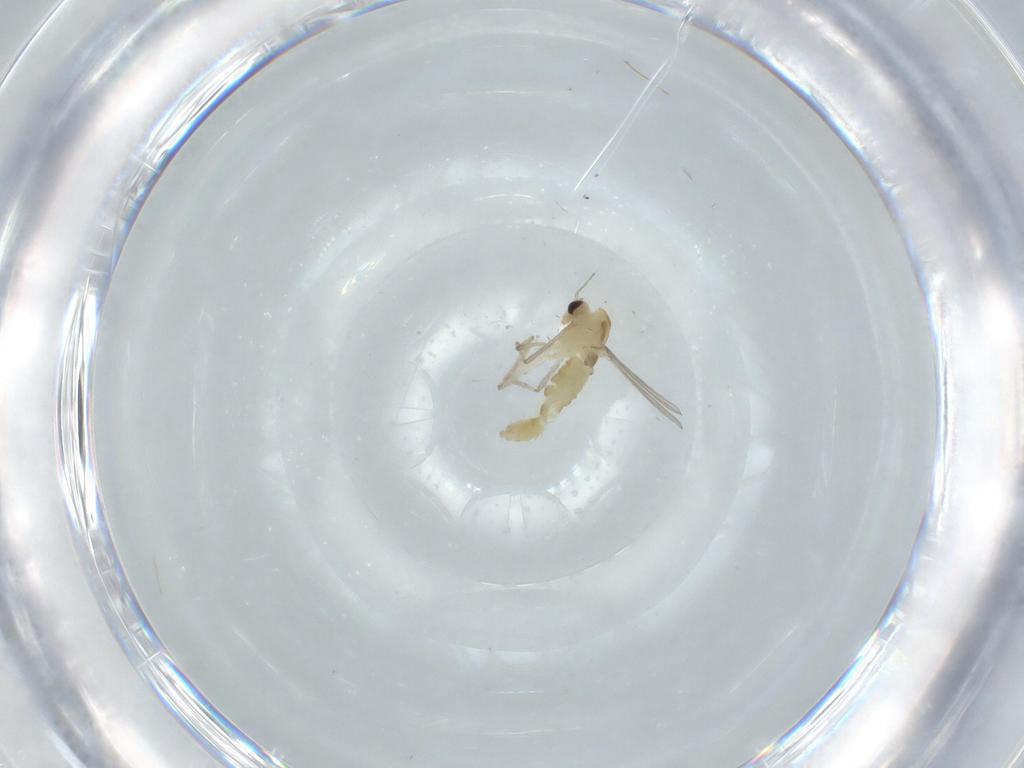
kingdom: Animalia
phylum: Arthropoda
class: Insecta
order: Diptera
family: Chironomidae
